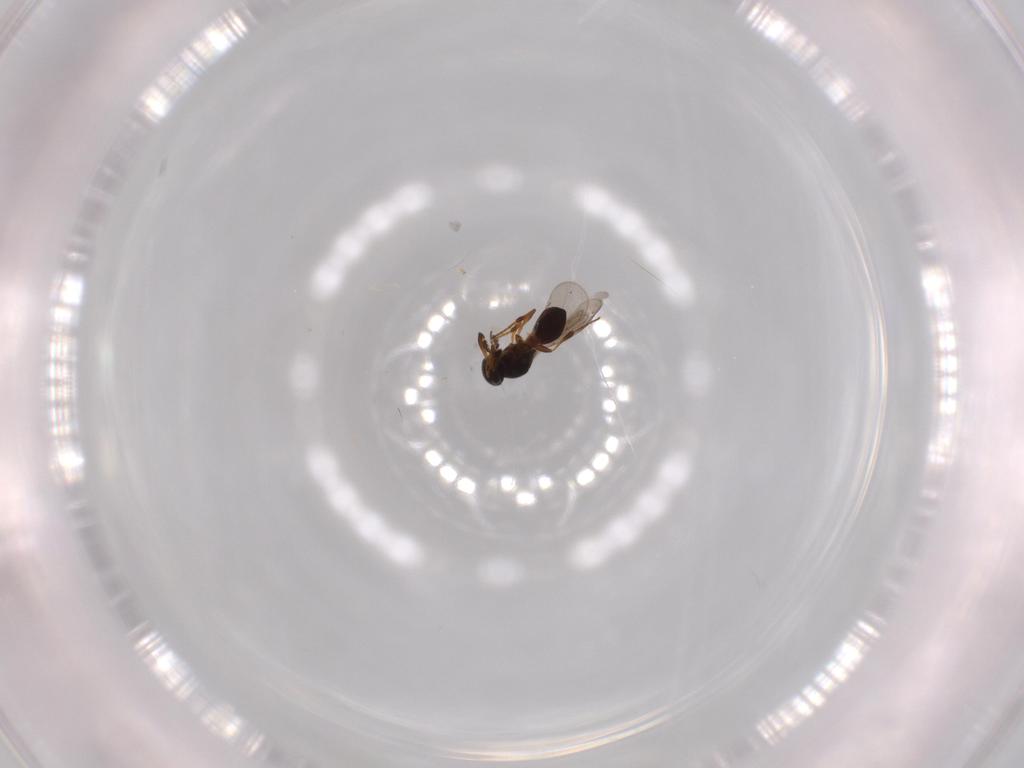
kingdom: Animalia
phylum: Arthropoda
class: Insecta
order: Hymenoptera
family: Platygastridae
